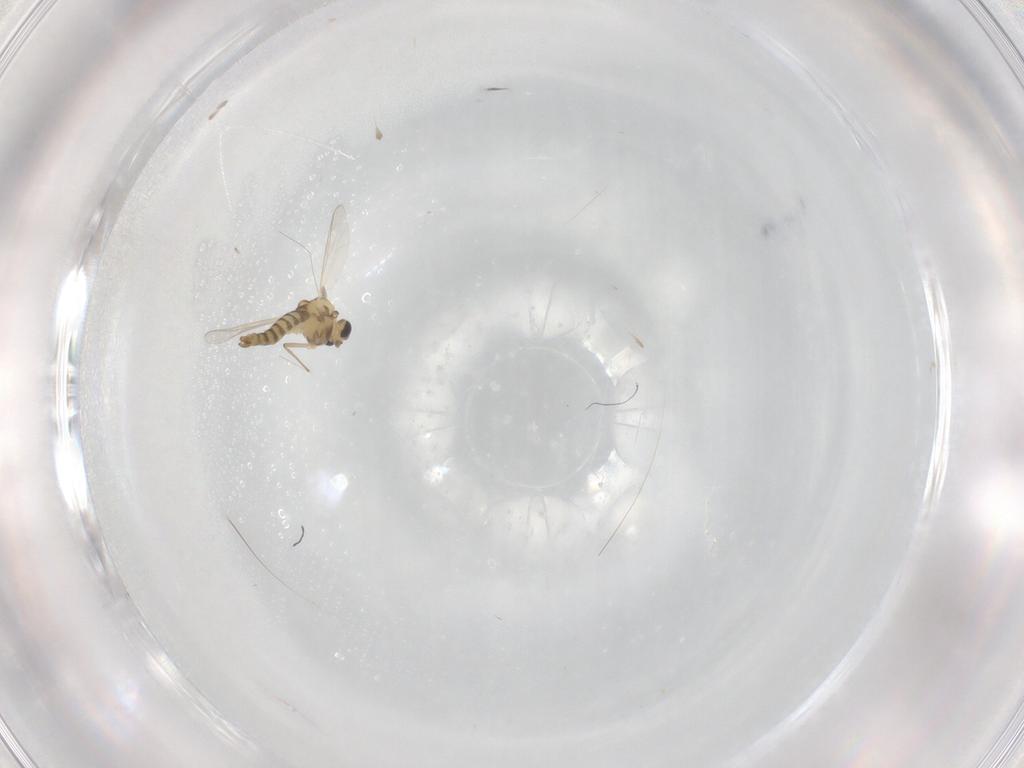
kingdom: Animalia
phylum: Arthropoda
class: Insecta
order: Diptera
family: Chironomidae
